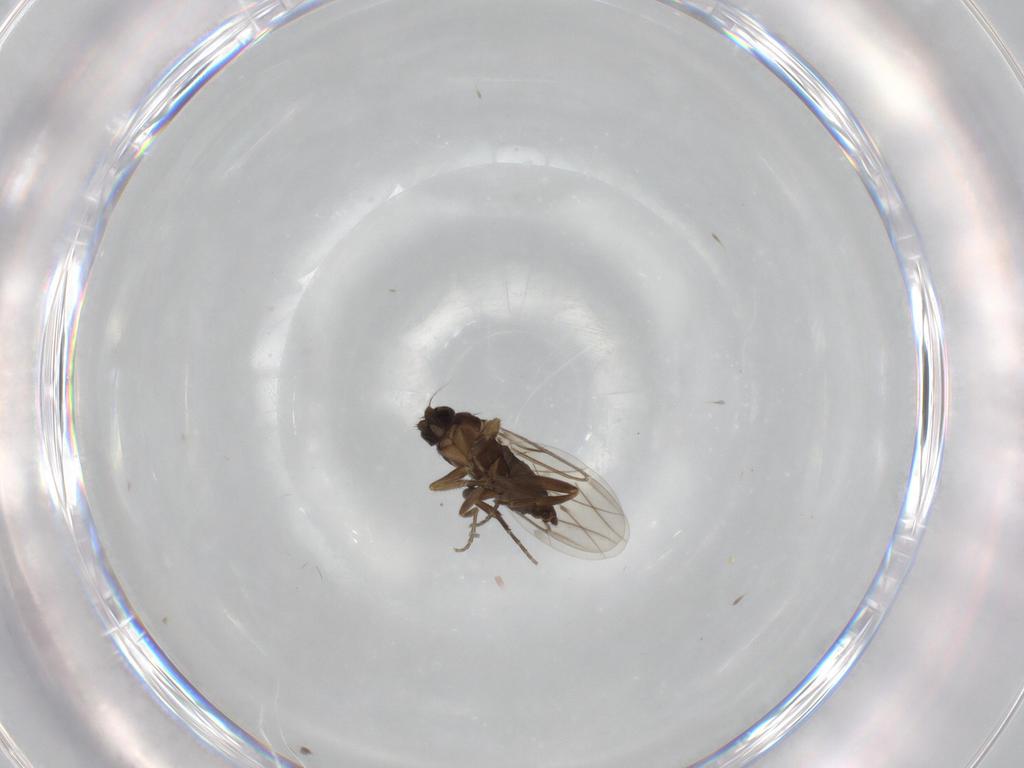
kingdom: Animalia
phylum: Arthropoda
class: Insecta
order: Diptera
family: Phoridae
